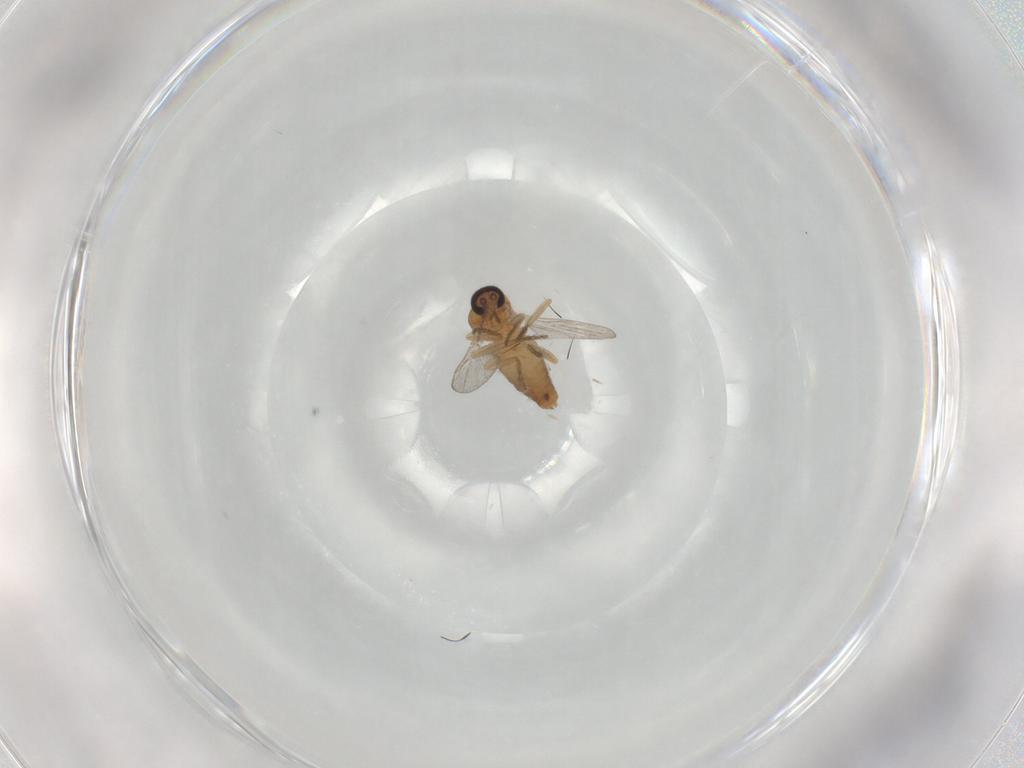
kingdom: Animalia
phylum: Arthropoda
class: Insecta
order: Diptera
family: Ceratopogonidae
